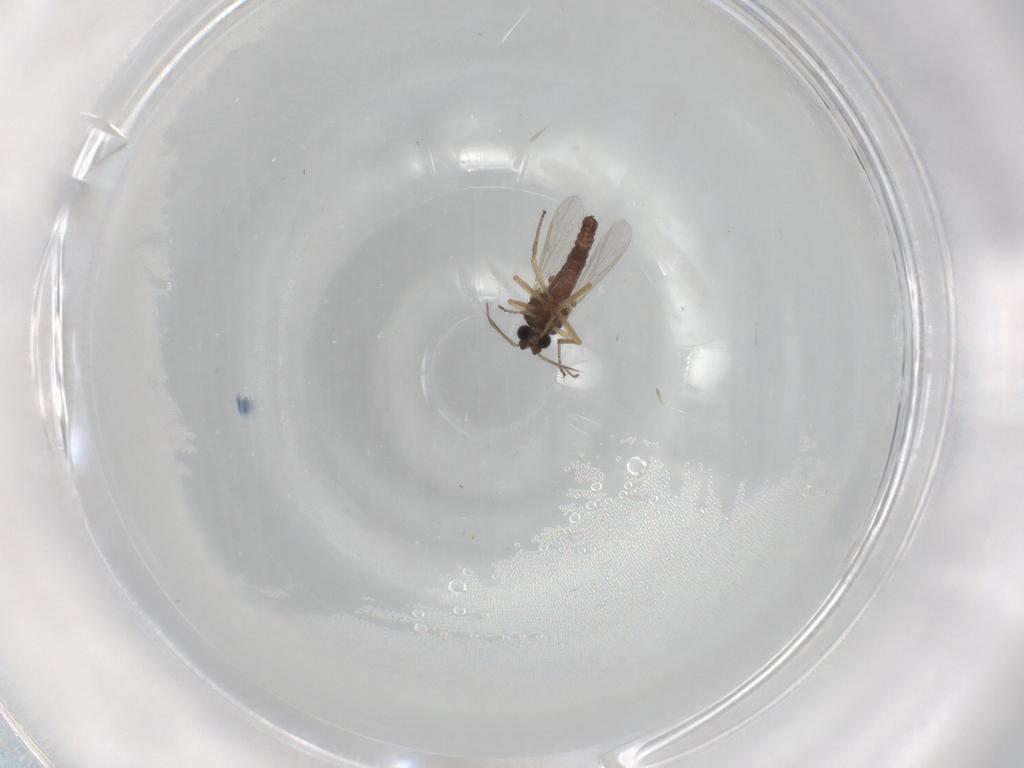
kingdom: Animalia
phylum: Arthropoda
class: Insecta
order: Diptera
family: Ceratopogonidae
